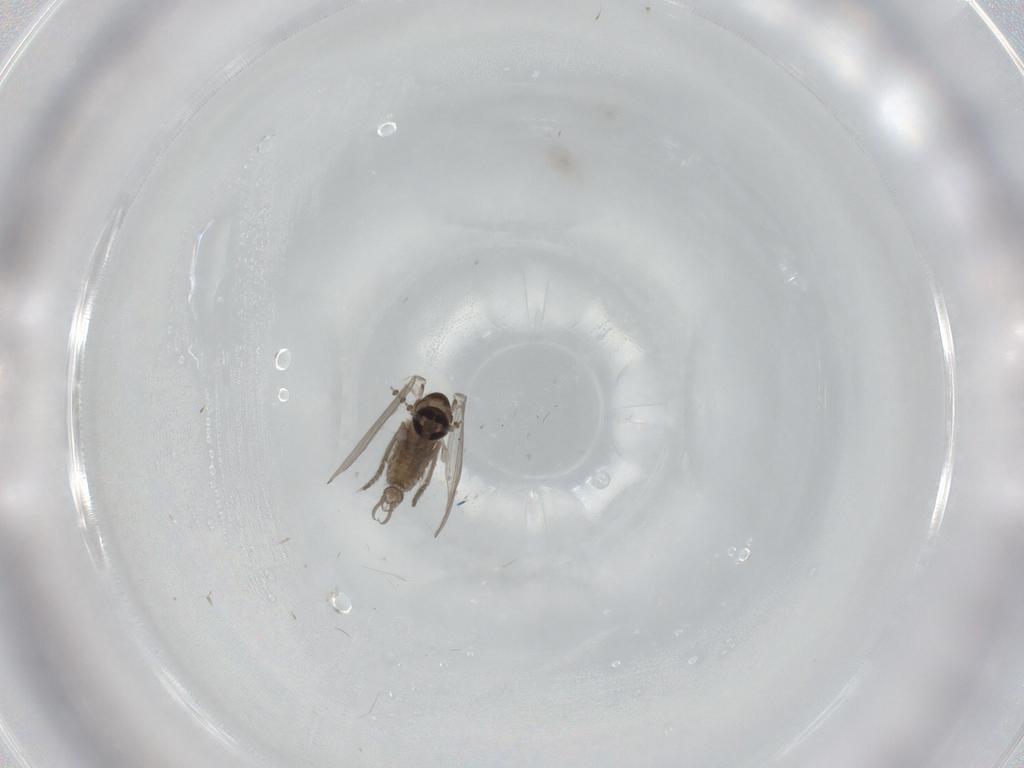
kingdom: Animalia
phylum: Arthropoda
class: Insecta
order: Diptera
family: Psychodidae
